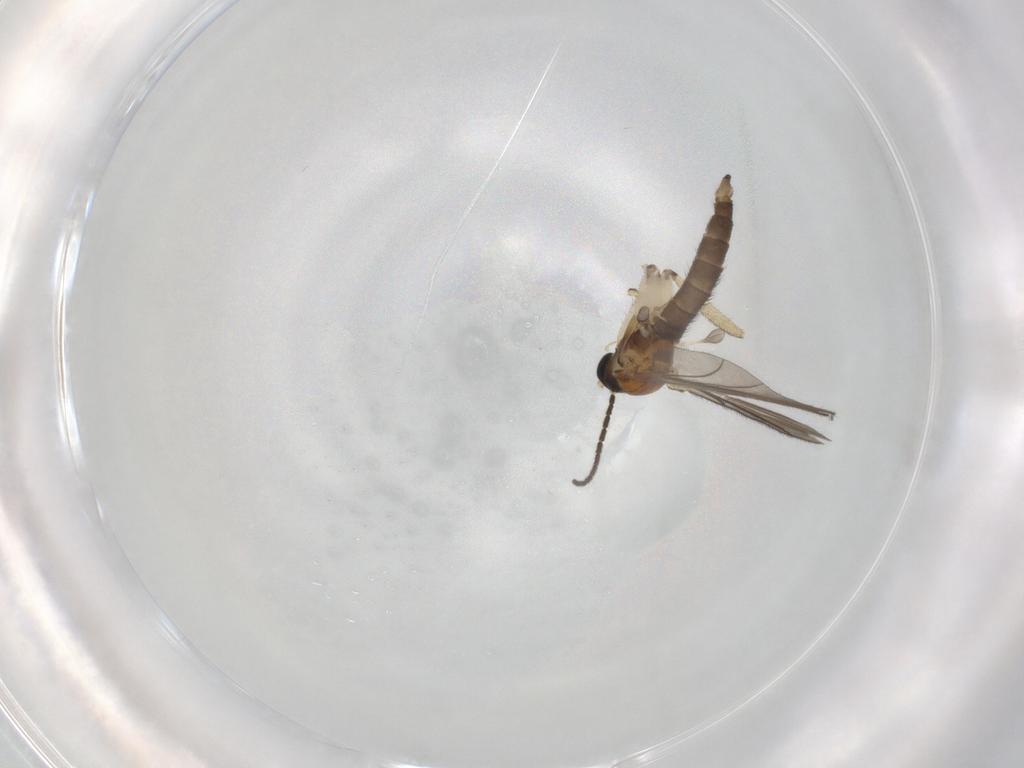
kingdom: Animalia
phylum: Arthropoda
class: Insecta
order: Diptera
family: Sciaridae
